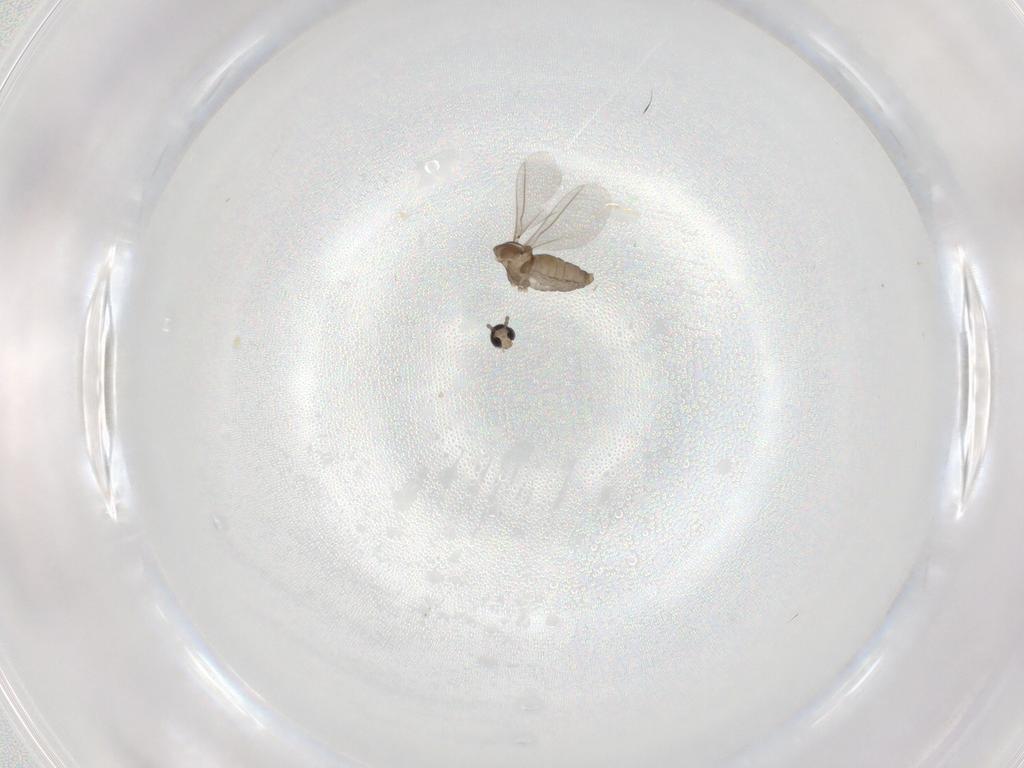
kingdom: Animalia
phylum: Arthropoda
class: Insecta
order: Diptera
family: Cecidomyiidae
